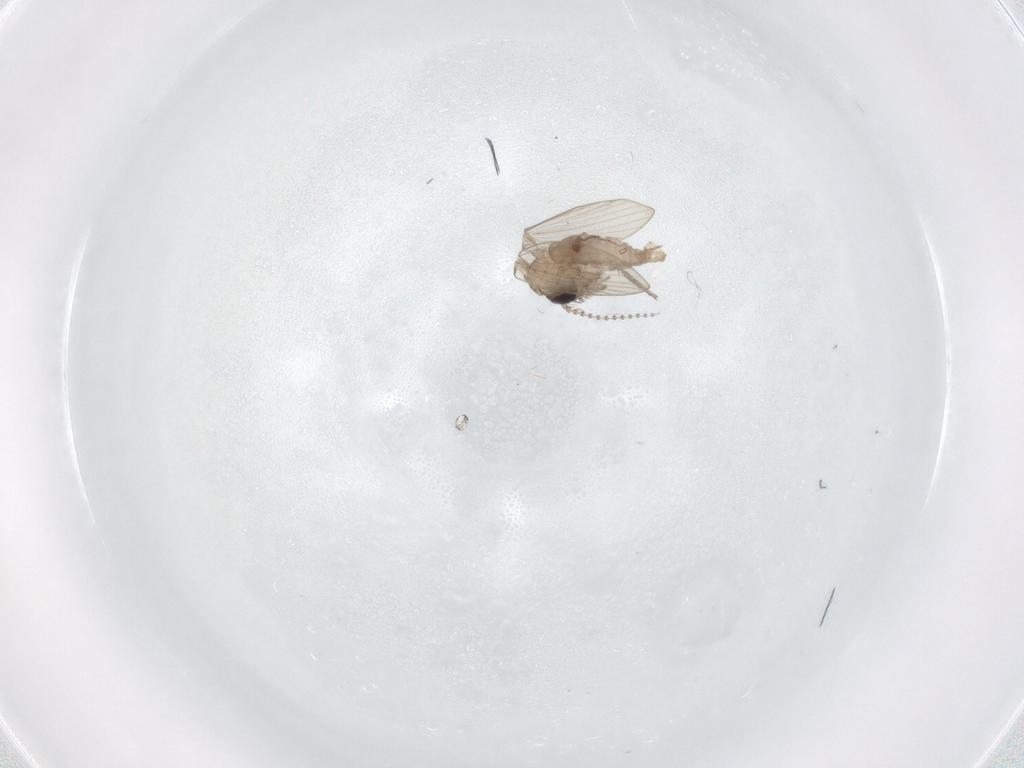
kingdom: Animalia
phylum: Arthropoda
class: Insecta
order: Diptera
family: Psychodidae
